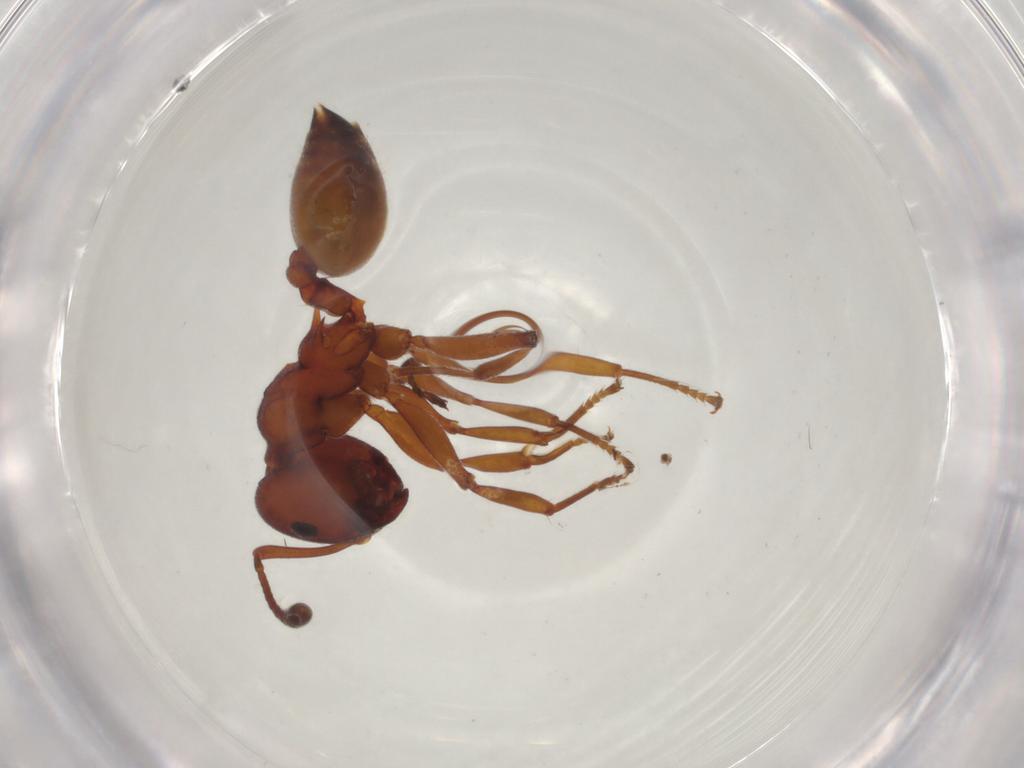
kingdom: Animalia
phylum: Arthropoda
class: Insecta
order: Hymenoptera
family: Formicidae
